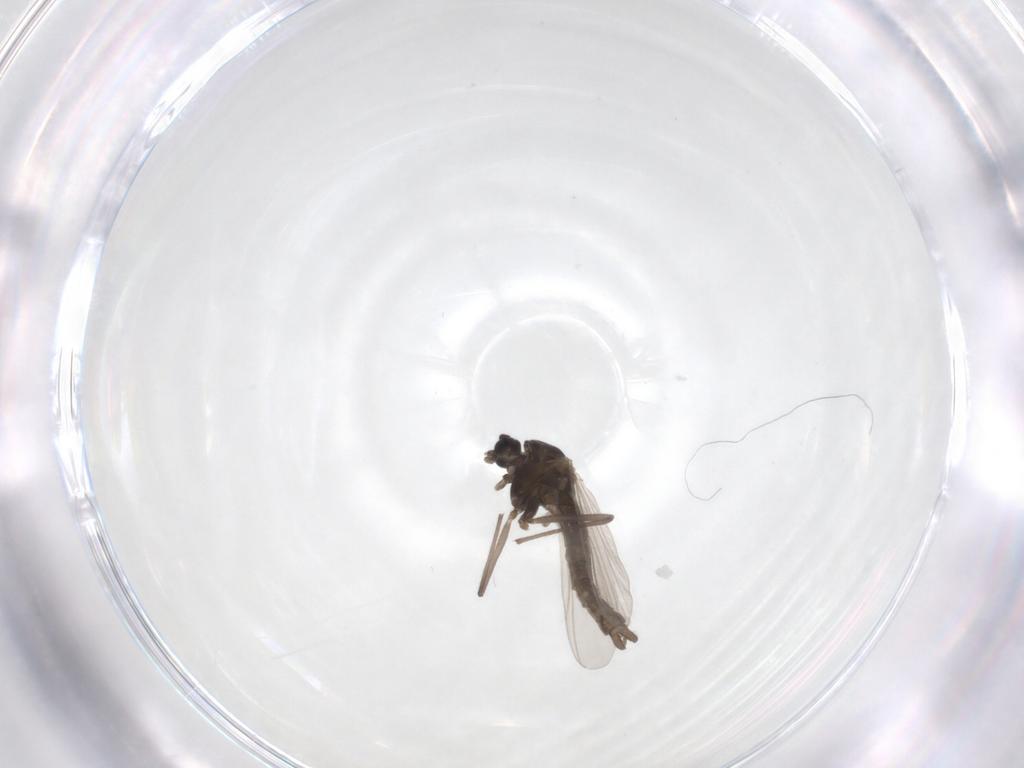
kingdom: Animalia
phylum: Arthropoda
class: Insecta
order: Diptera
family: Chironomidae
